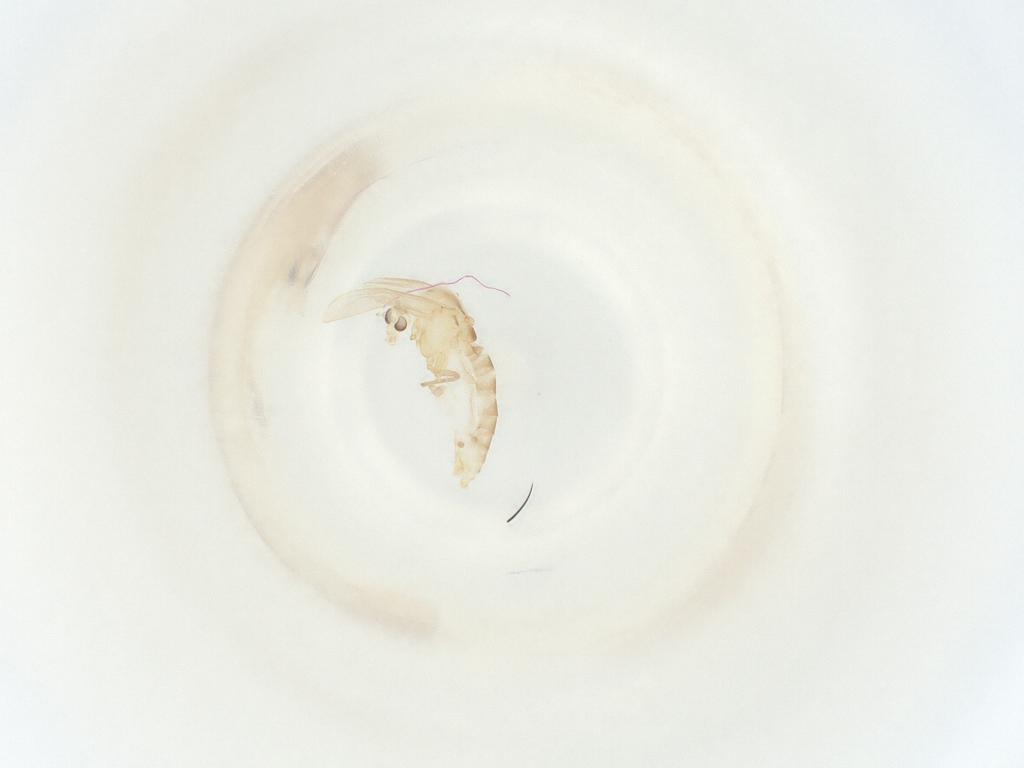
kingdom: Animalia
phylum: Arthropoda
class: Insecta
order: Diptera
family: Chironomidae
